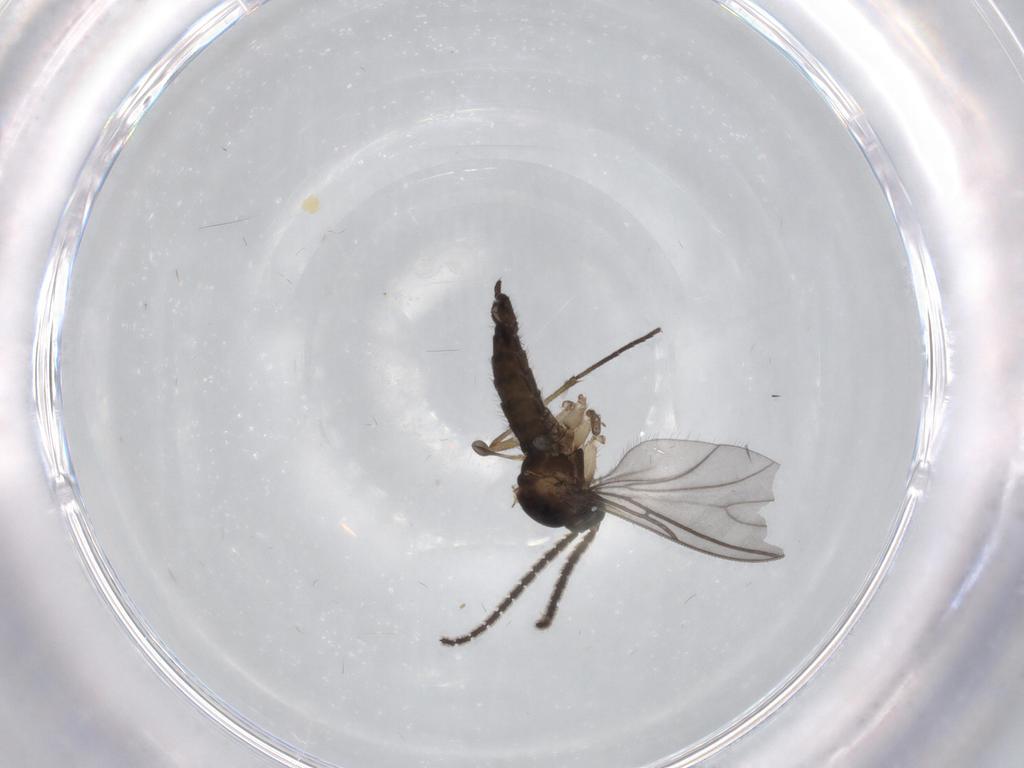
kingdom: Animalia
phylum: Arthropoda
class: Insecta
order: Diptera
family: Sciaridae
